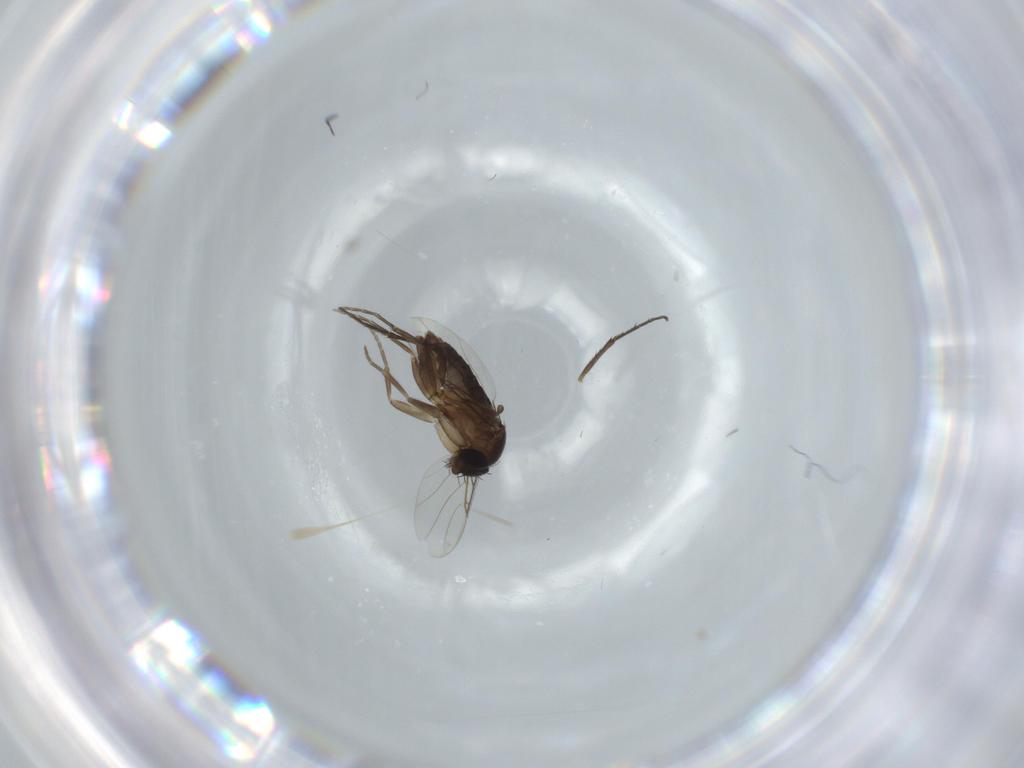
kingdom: Animalia
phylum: Arthropoda
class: Insecta
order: Diptera
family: Phoridae
